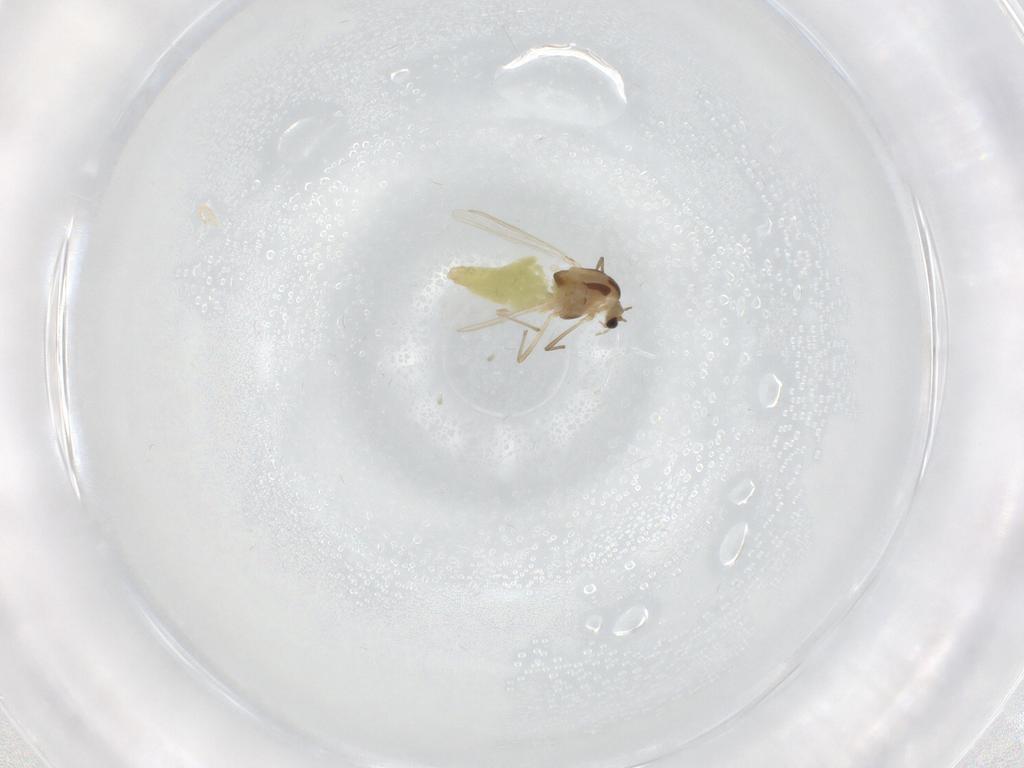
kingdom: Animalia
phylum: Arthropoda
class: Insecta
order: Diptera
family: Chironomidae
